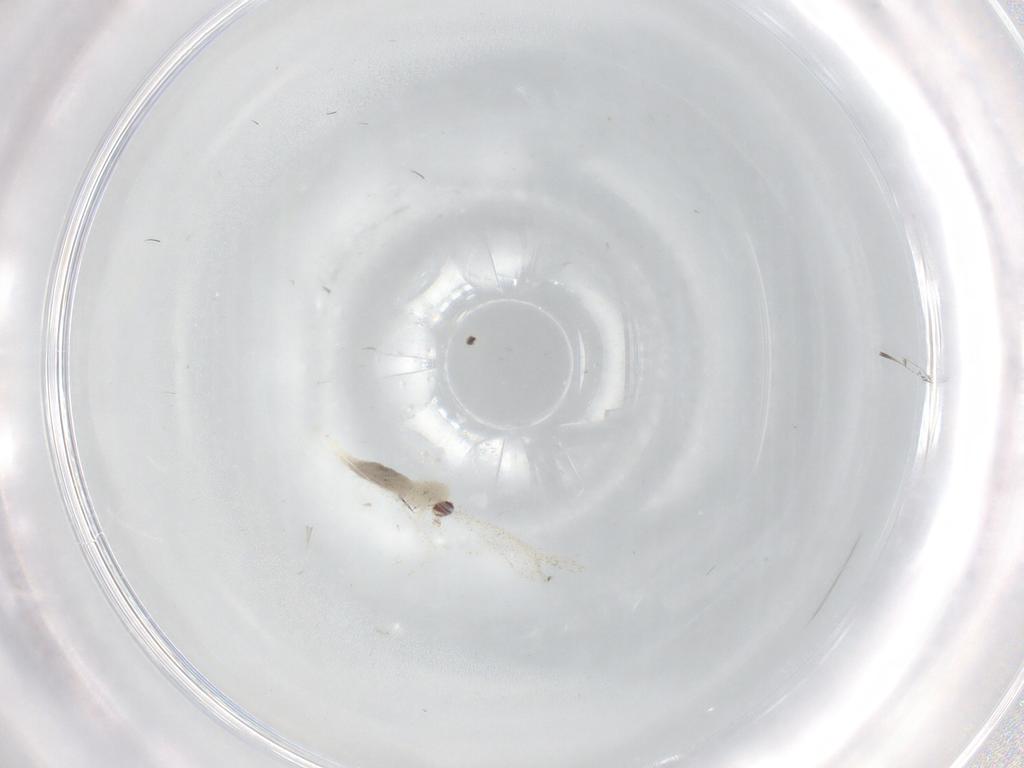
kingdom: Animalia
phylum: Arthropoda
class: Insecta
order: Diptera
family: Cecidomyiidae
